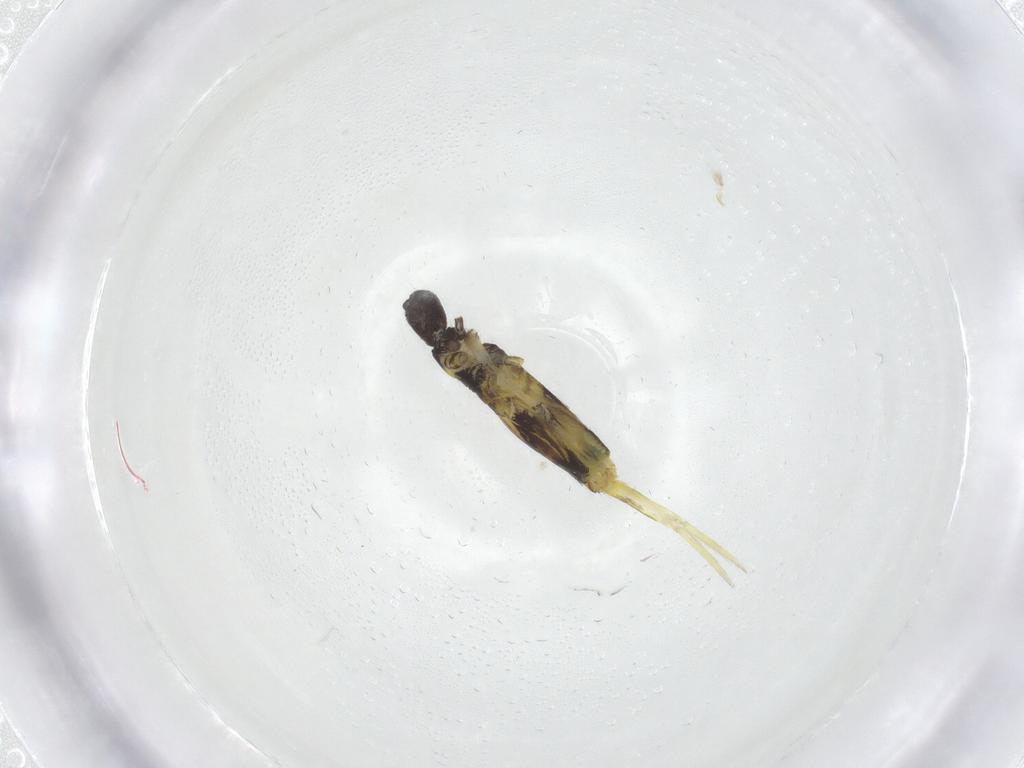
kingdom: Animalia
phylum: Arthropoda
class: Collembola
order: Entomobryomorpha
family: Entomobryidae
